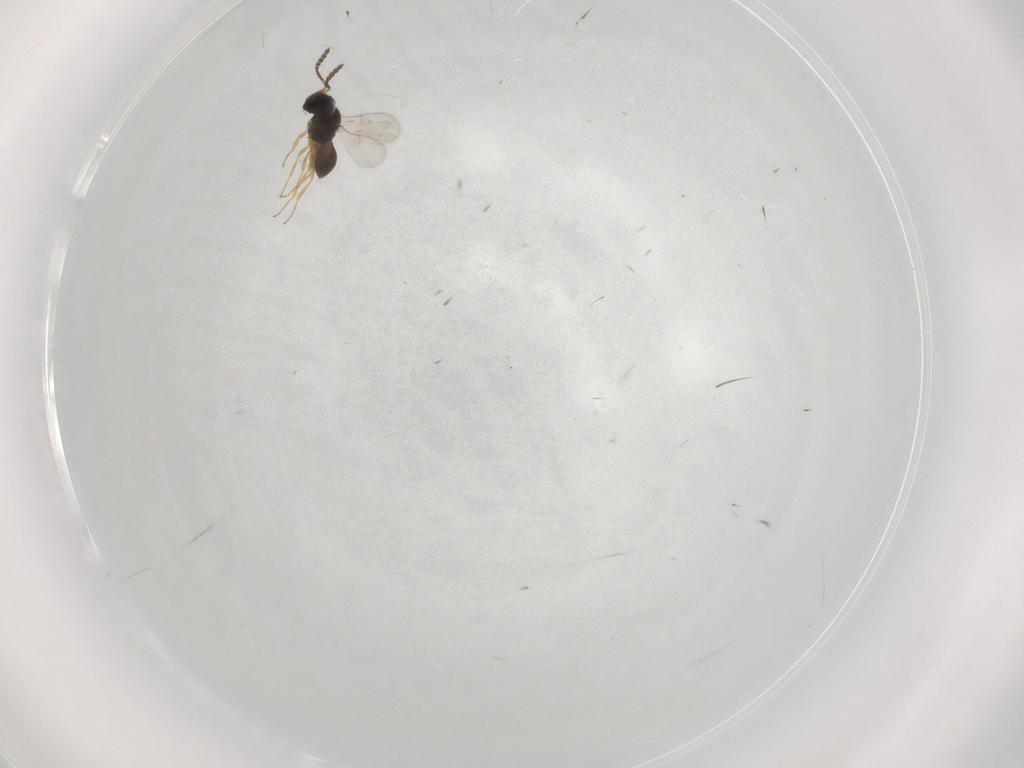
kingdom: Animalia
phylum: Arthropoda
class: Insecta
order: Hymenoptera
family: Scelionidae
